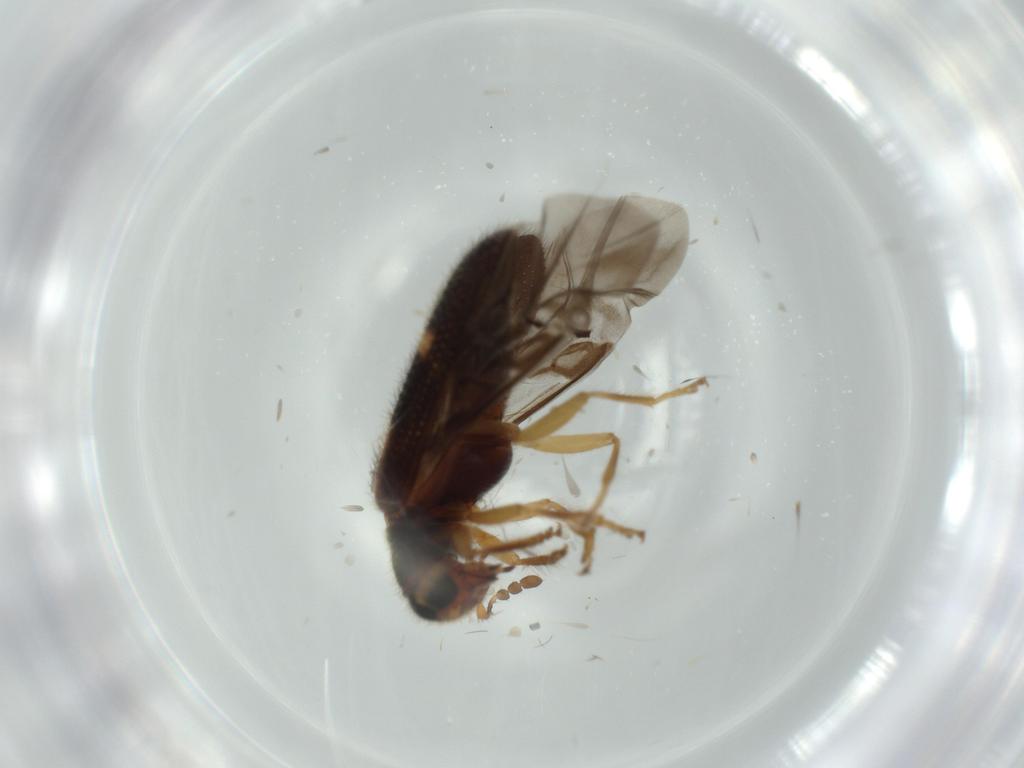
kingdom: Animalia
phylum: Arthropoda
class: Insecta
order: Coleoptera
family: Cleridae
